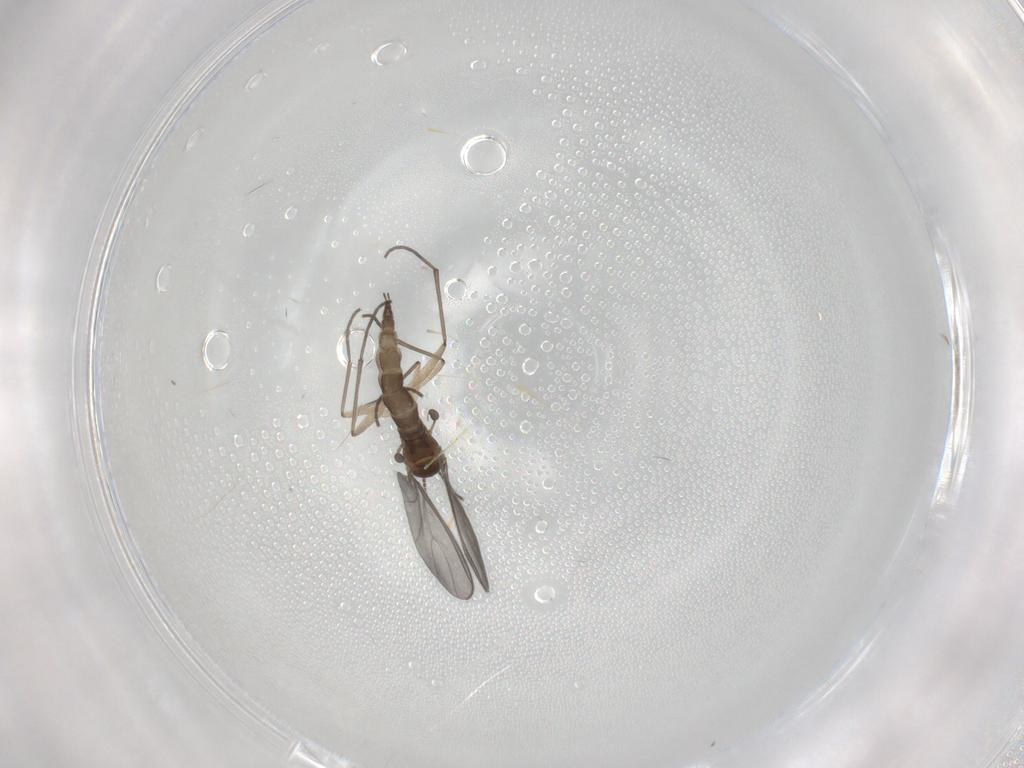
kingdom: Animalia
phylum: Arthropoda
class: Insecta
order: Diptera
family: Sciaridae
